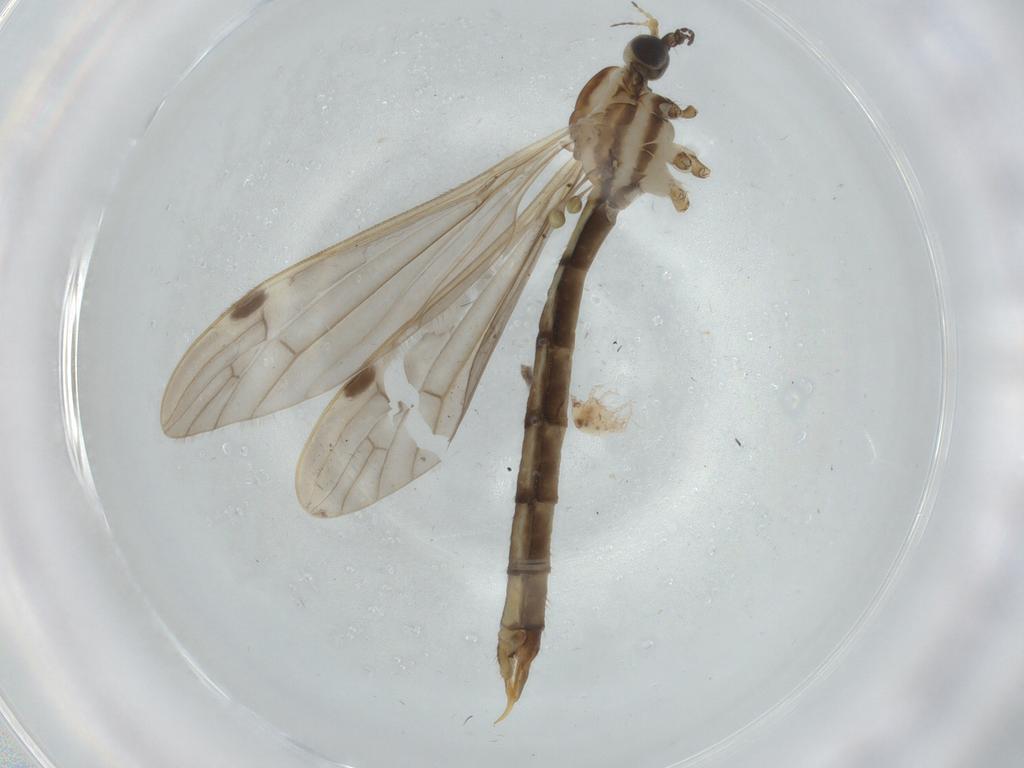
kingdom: Animalia
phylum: Arthropoda
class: Insecta
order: Diptera
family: Limoniidae
